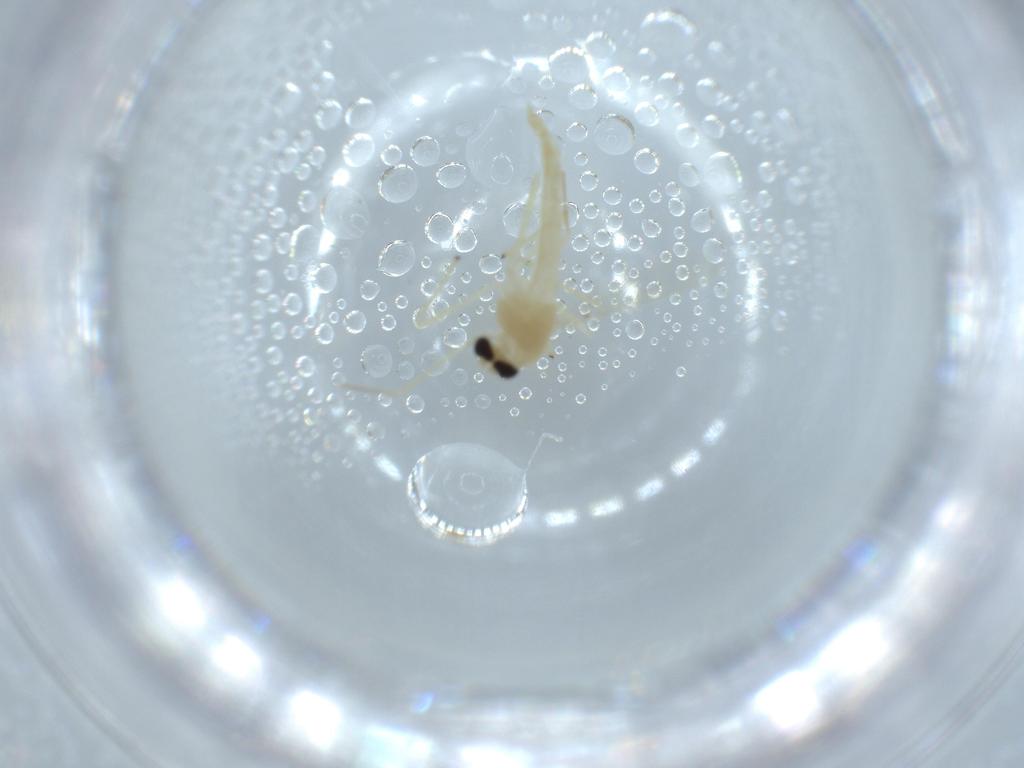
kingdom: Animalia
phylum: Arthropoda
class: Insecta
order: Diptera
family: Chironomidae
